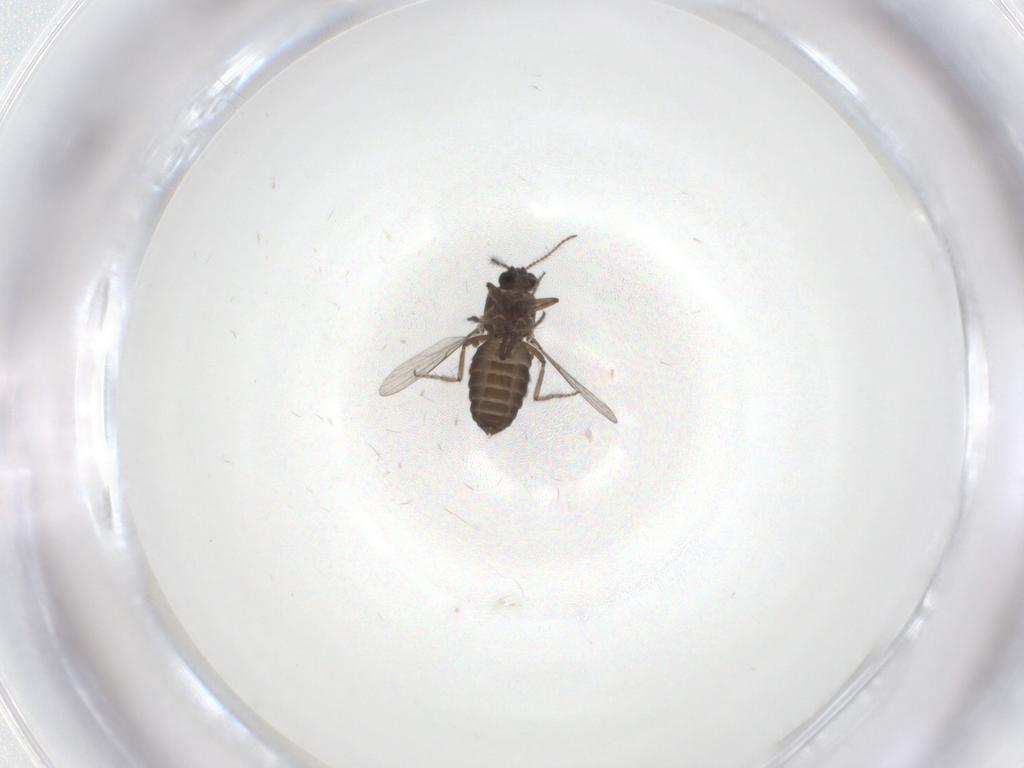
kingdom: Animalia
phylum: Arthropoda
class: Insecta
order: Diptera
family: Ceratopogonidae
